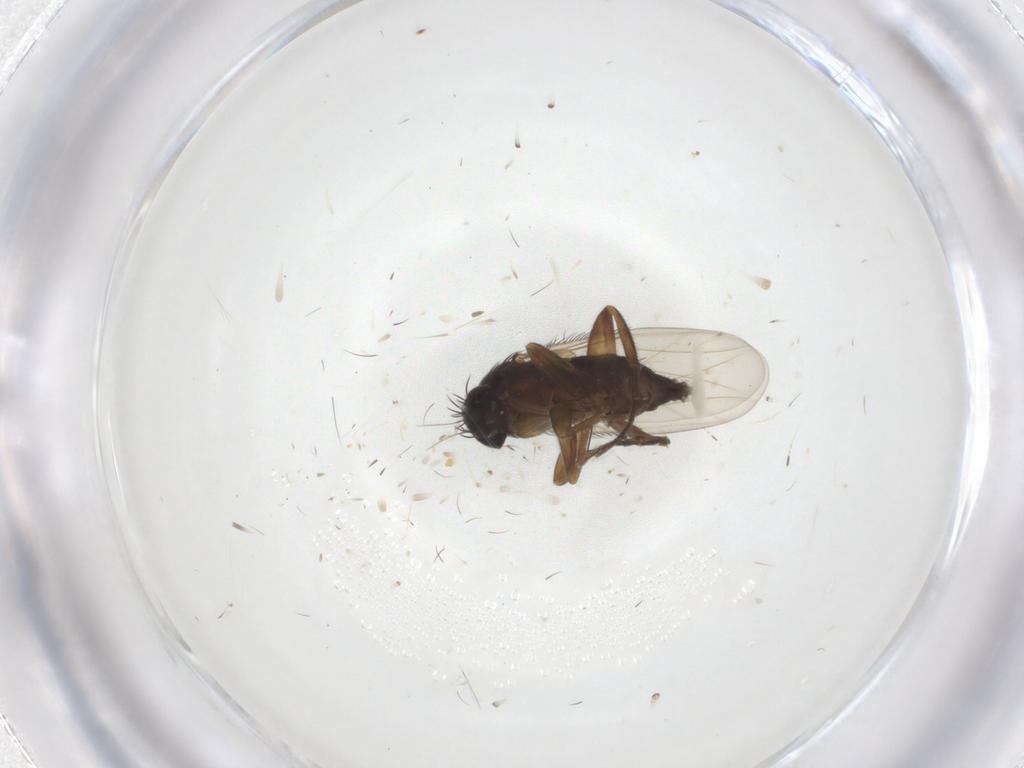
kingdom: Animalia
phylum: Arthropoda
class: Insecta
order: Diptera
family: Phoridae
